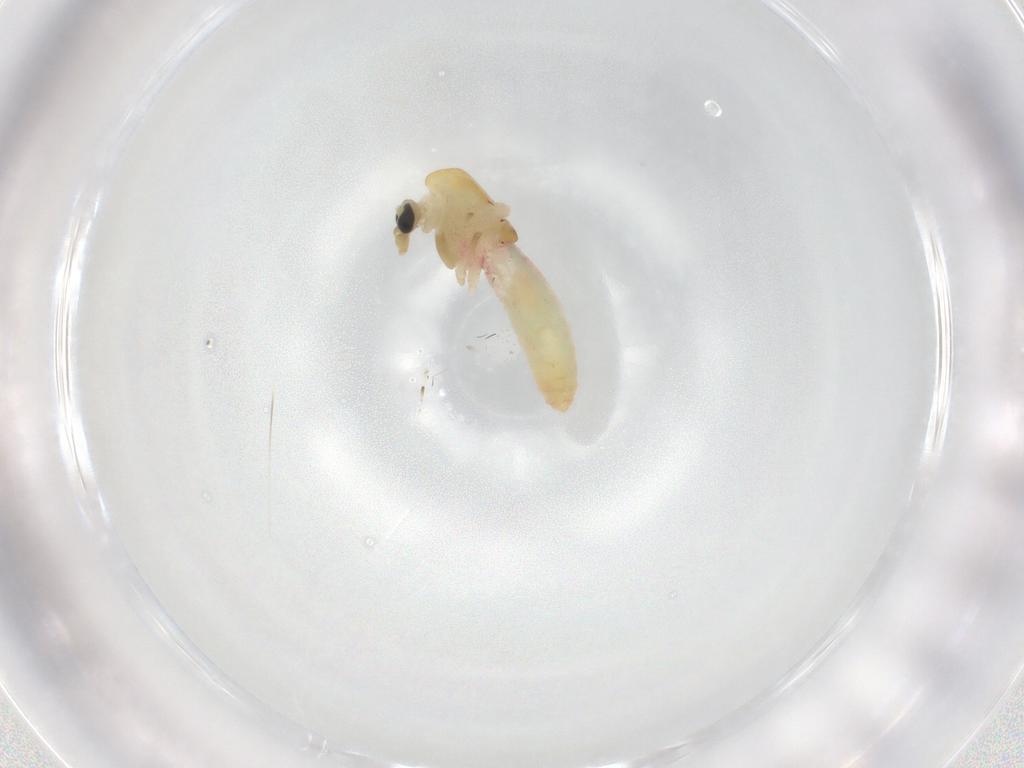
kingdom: Animalia
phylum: Arthropoda
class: Insecta
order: Diptera
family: Chironomidae
